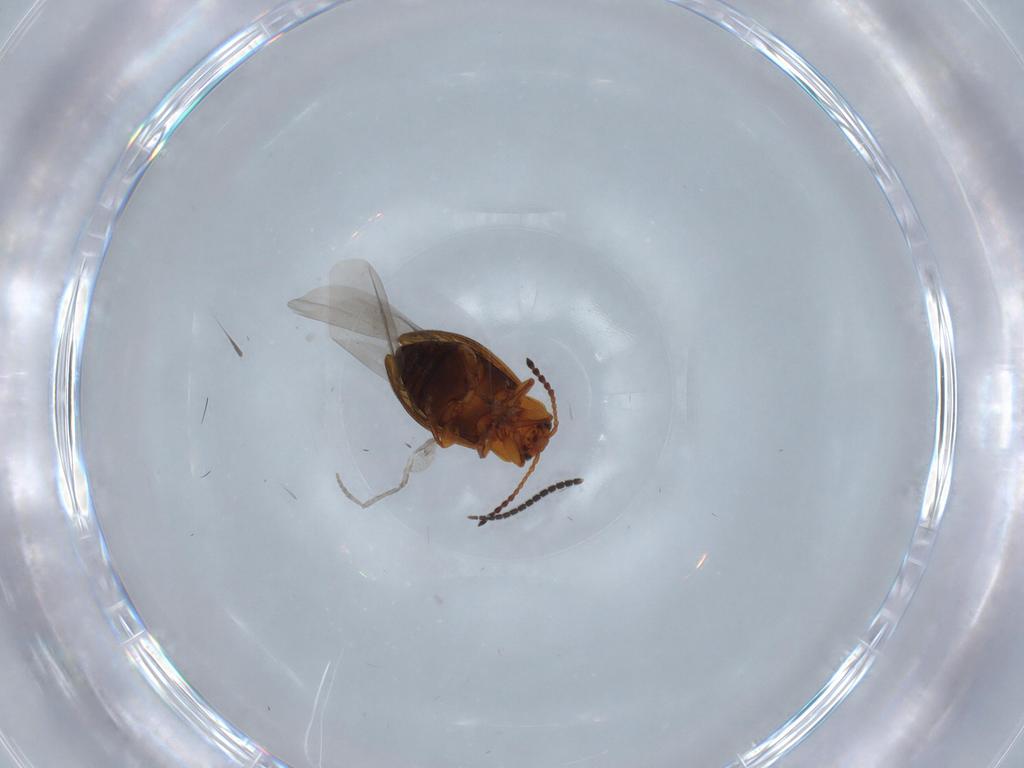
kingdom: Animalia
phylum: Arthropoda
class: Insecta
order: Coleoptera
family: Chrysomelidae
